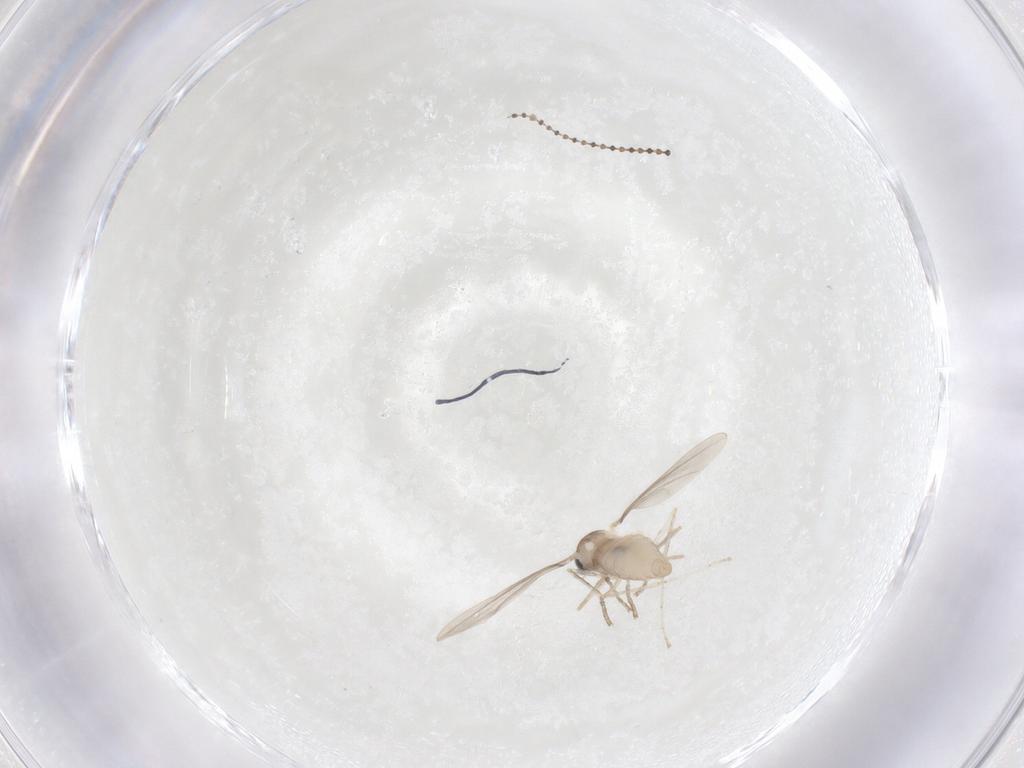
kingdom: Animalia
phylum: Arthropoda
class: Insecta
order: Diptera
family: Cecidomyiidae
